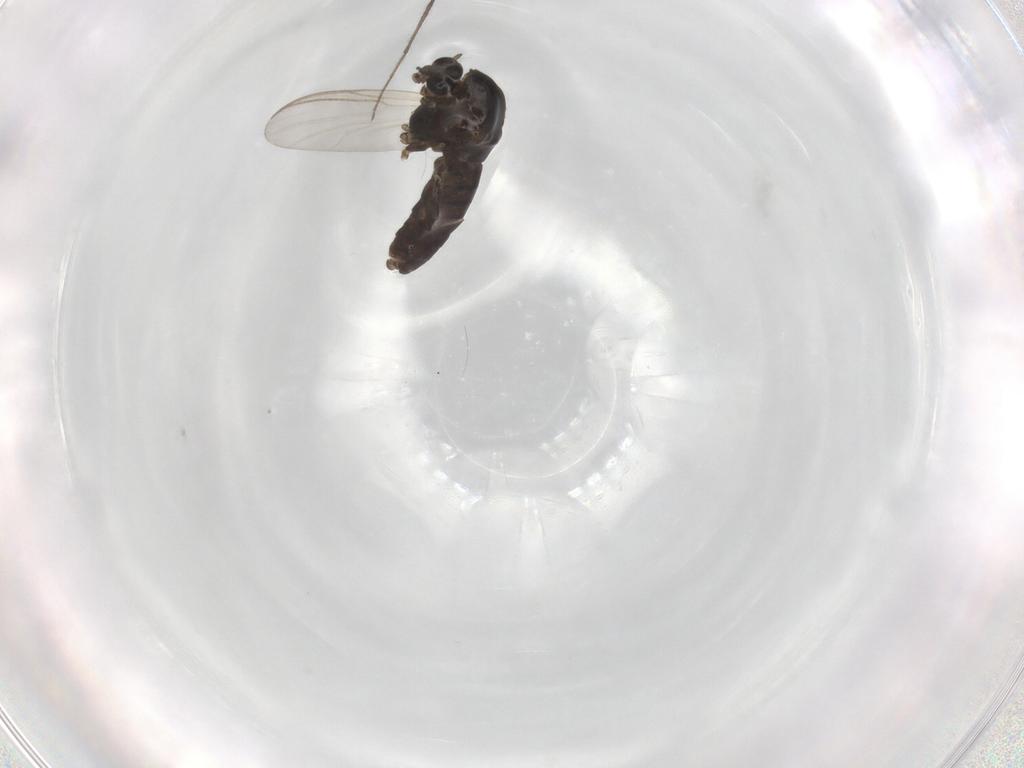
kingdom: Animalia
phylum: Arthropoda
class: Insecta
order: Diptera
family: Chironomidae
